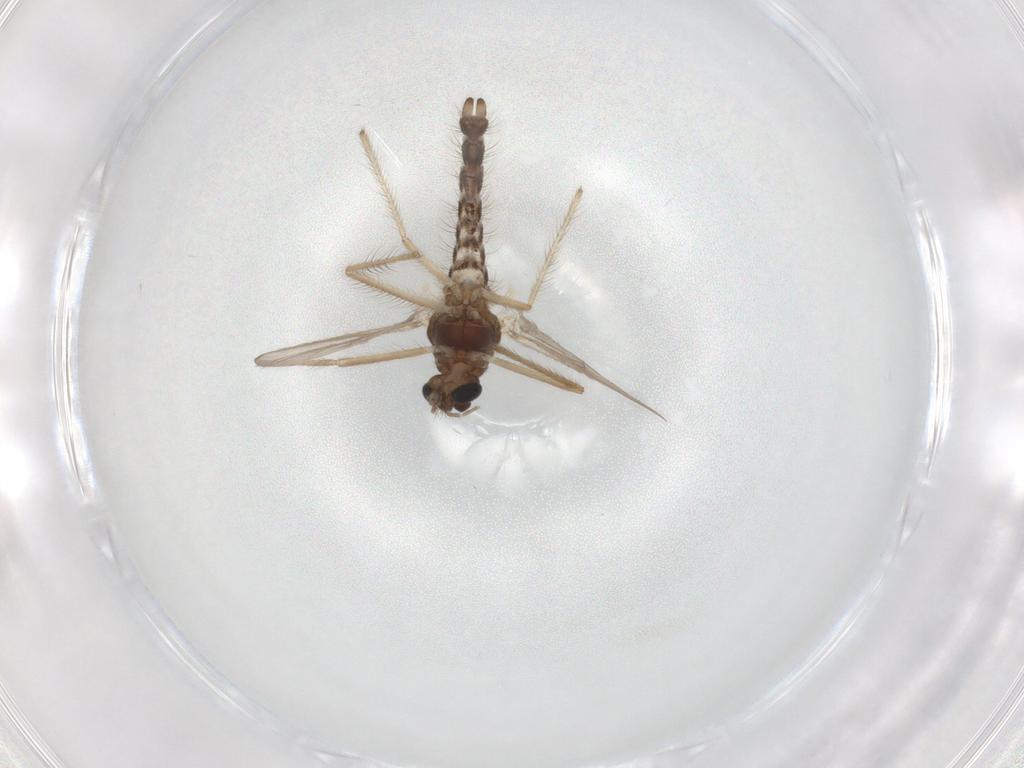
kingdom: Animalia
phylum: Arthropoda
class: Insecta
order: Diptera
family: Chironomidae
